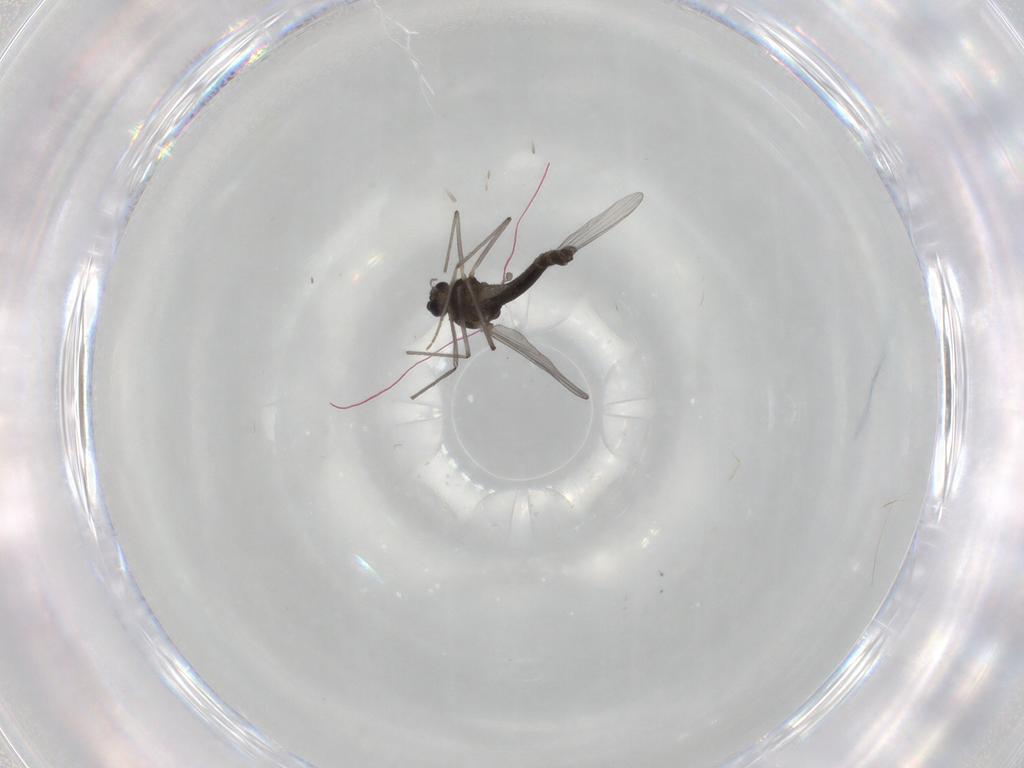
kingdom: Animalia
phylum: Arthropoda
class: Insecta
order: Diptera
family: Chironomidae
